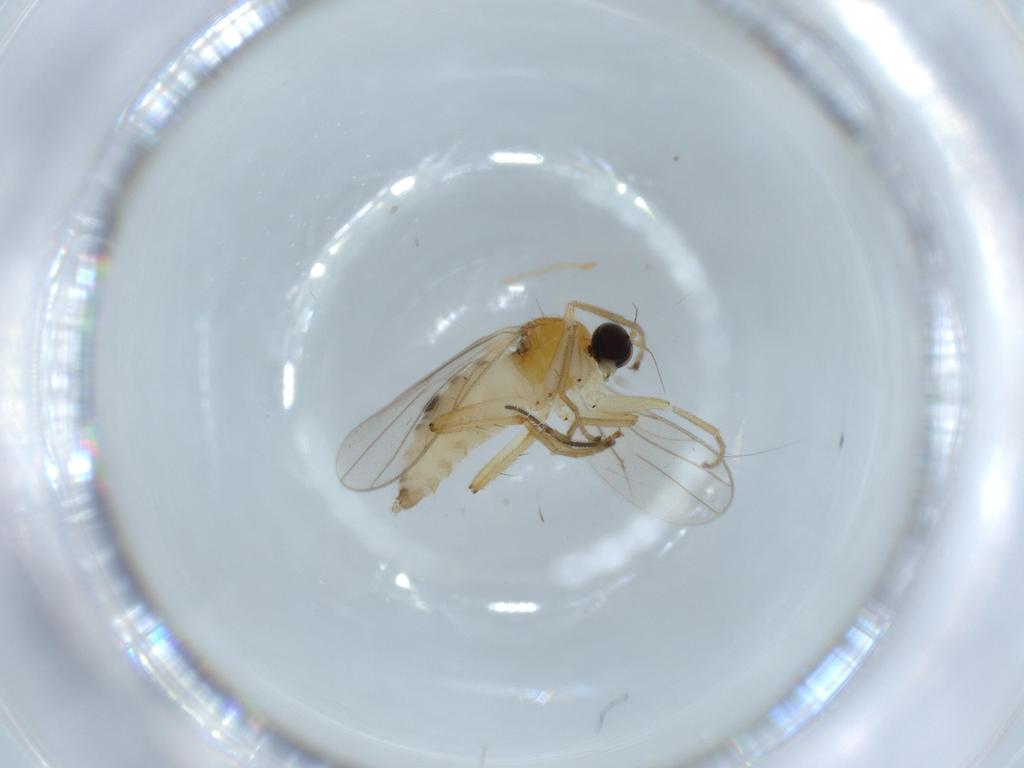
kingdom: Animalia
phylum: Arthropoda
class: Insecta
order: Diptera
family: Hybotidae
